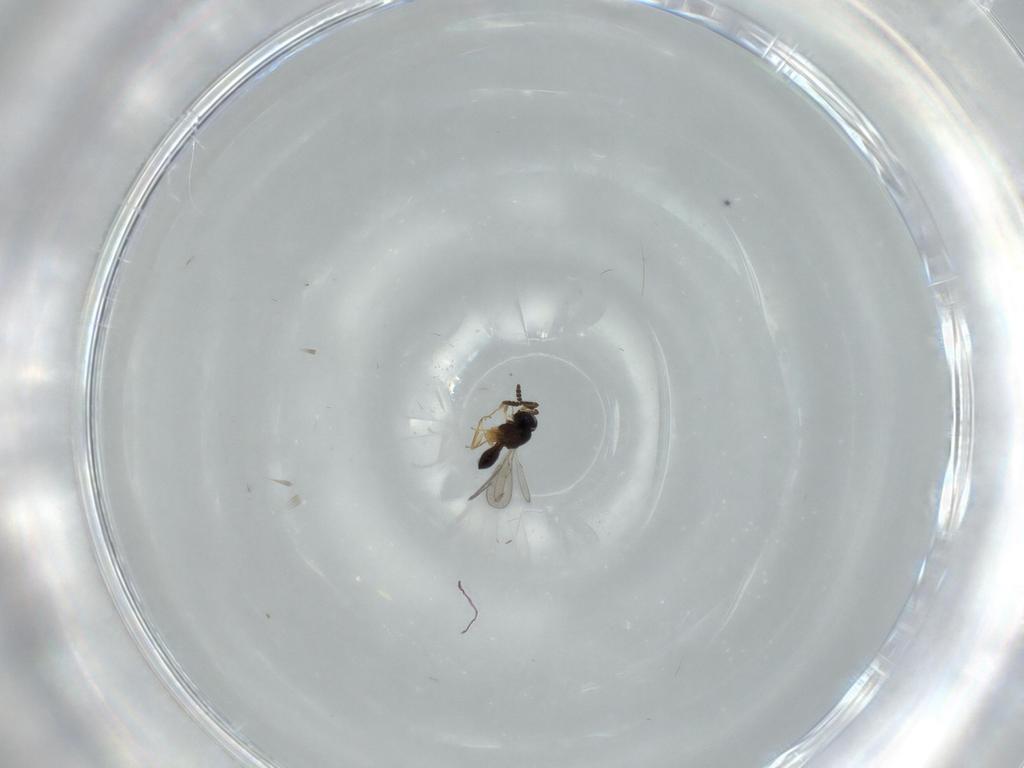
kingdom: Animalia
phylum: Arthropoda
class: Insecta
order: Hymenoptera
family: Scelionidae
